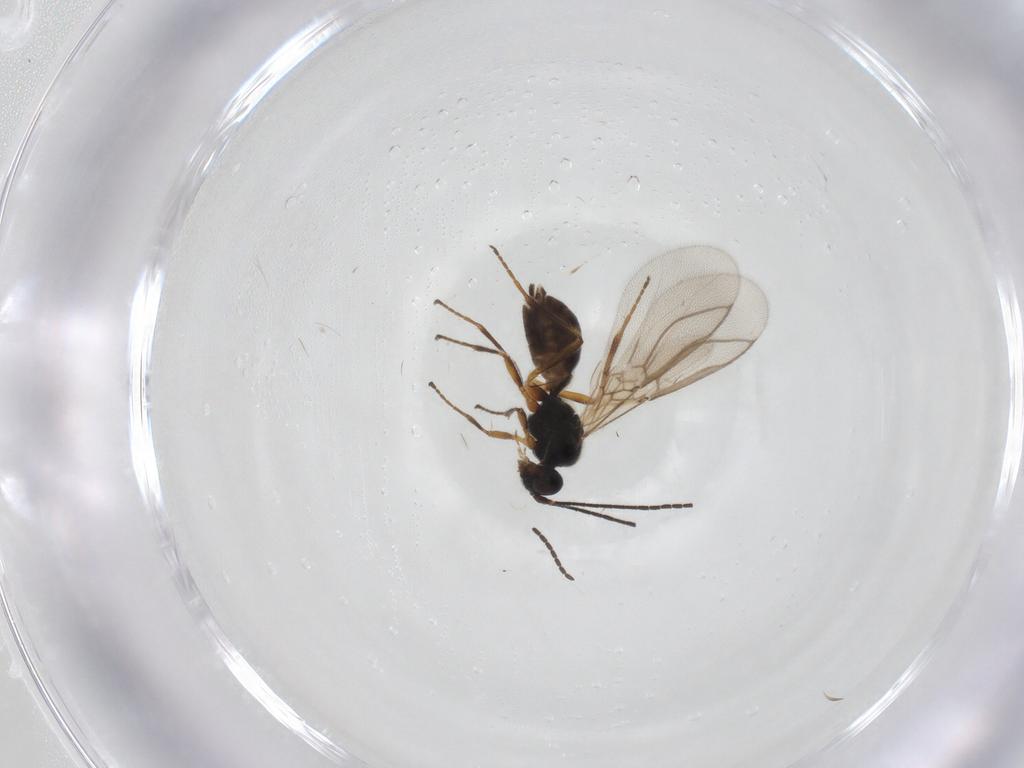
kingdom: Animalia
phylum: Arthropoda
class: Insecta
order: Hymenoptera
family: Braconidae
